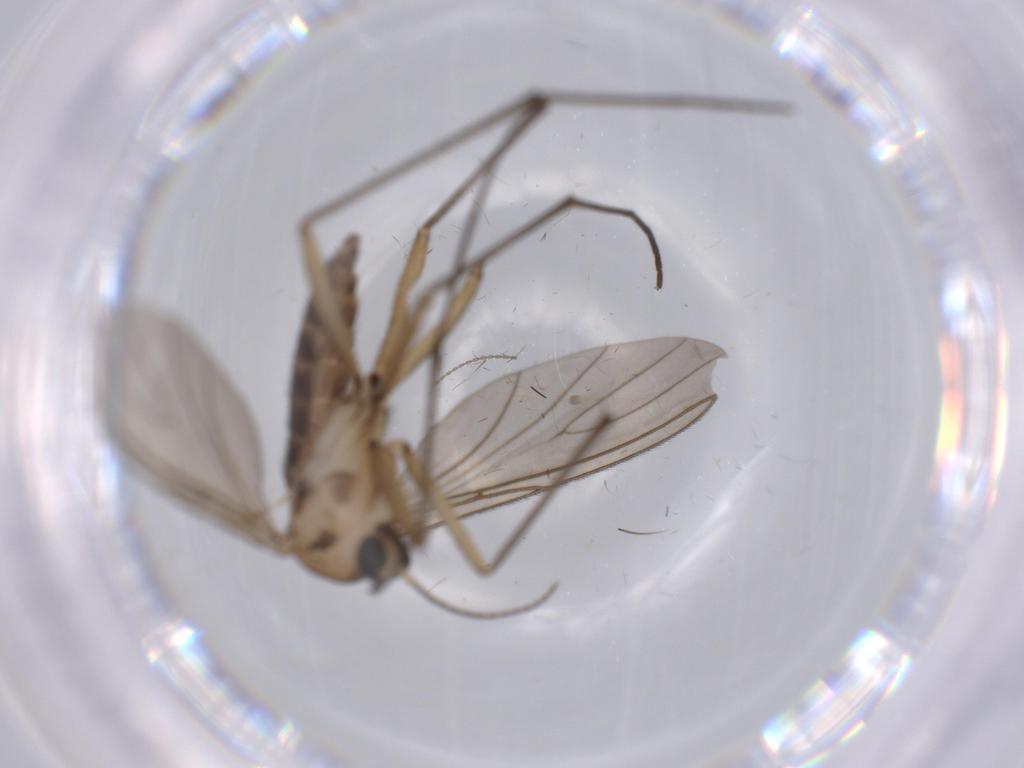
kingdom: Animalia
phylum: Arthropoda
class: Insecta
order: Diptera
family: Sciaridae
